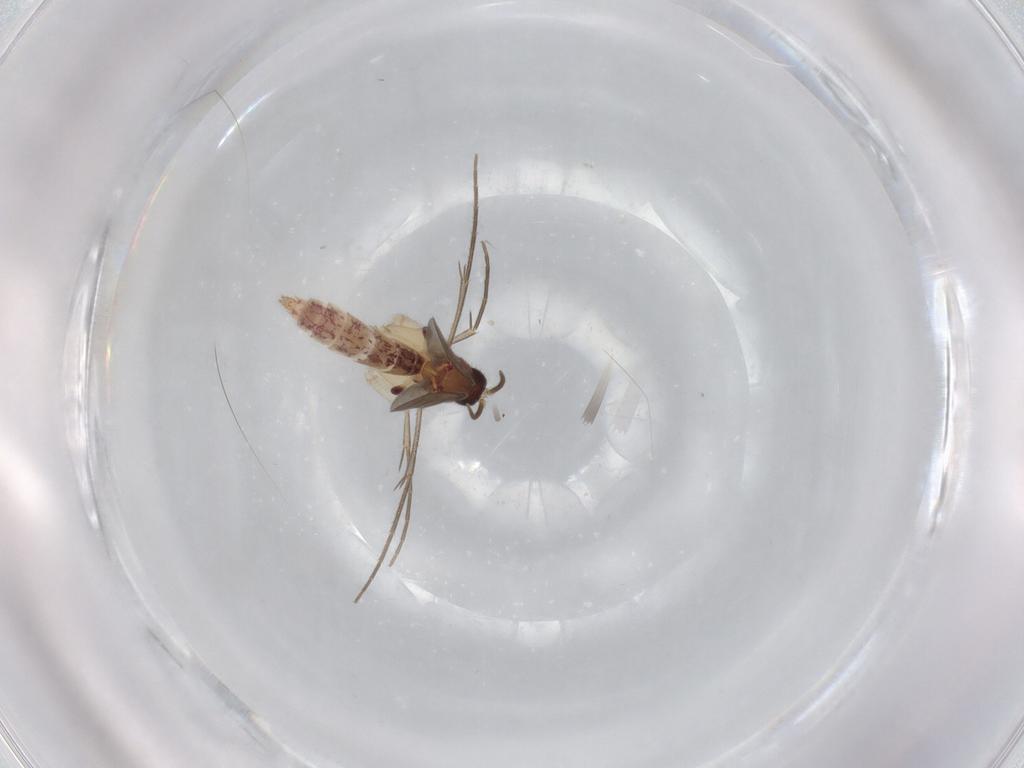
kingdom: Animalia
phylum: Arthropoda
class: Insecta
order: Diptera
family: Mycetophilidae
